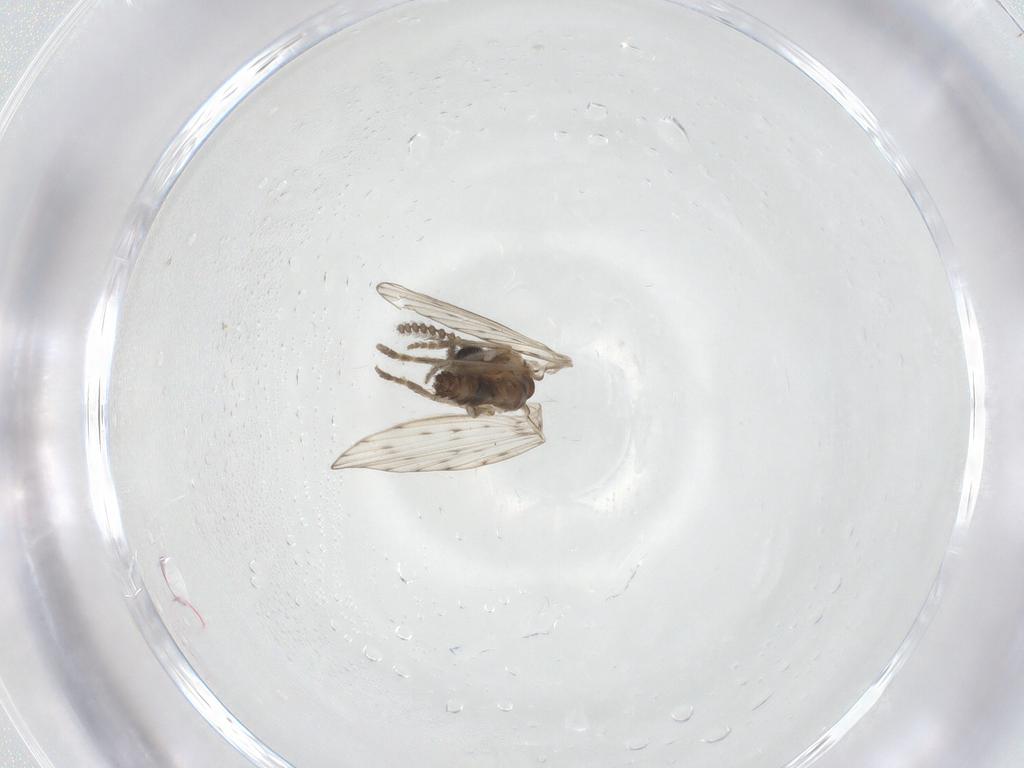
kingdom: Animalia
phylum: Arthropoda
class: Insecta
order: Diptera
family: Psychodidae
